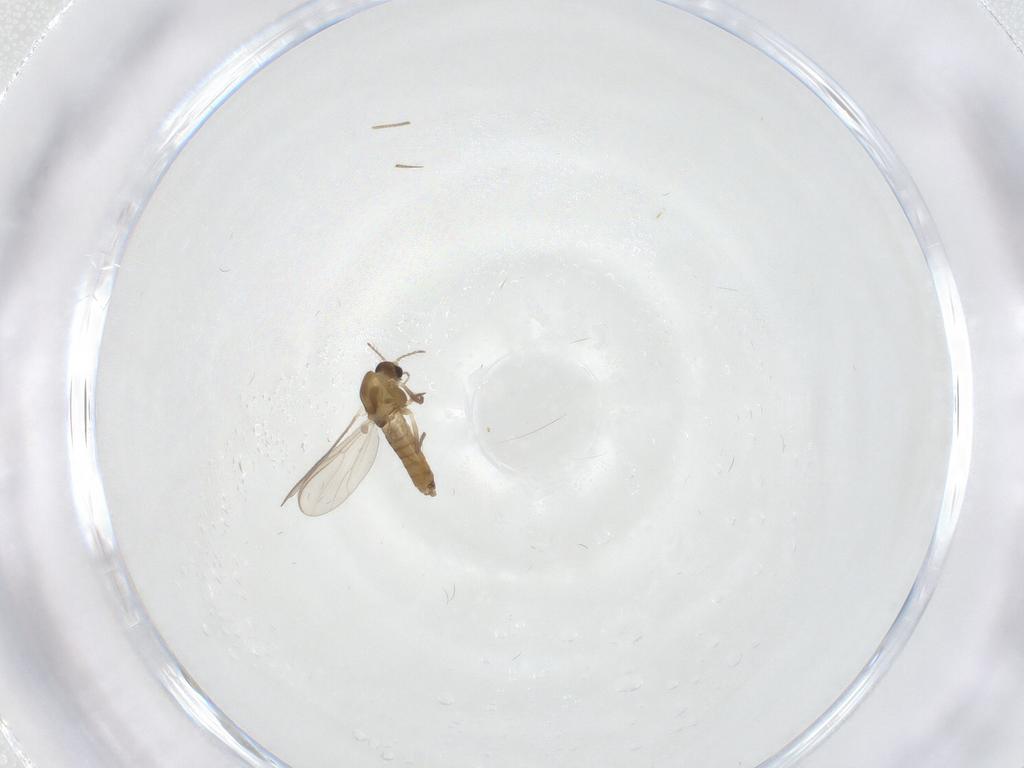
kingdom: Animalia
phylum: Arthropoda
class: Insecta
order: Diptera
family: Chironomidae
